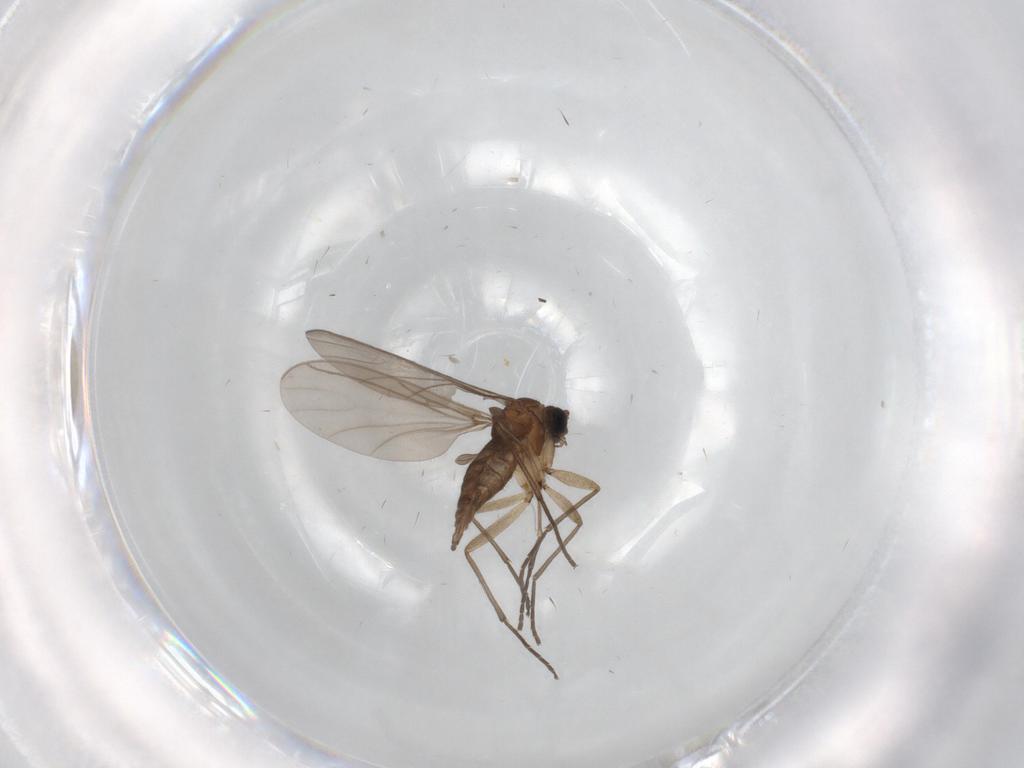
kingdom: Animalia
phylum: Arthropoda
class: Insecta
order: Diptera
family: Sciaridae
